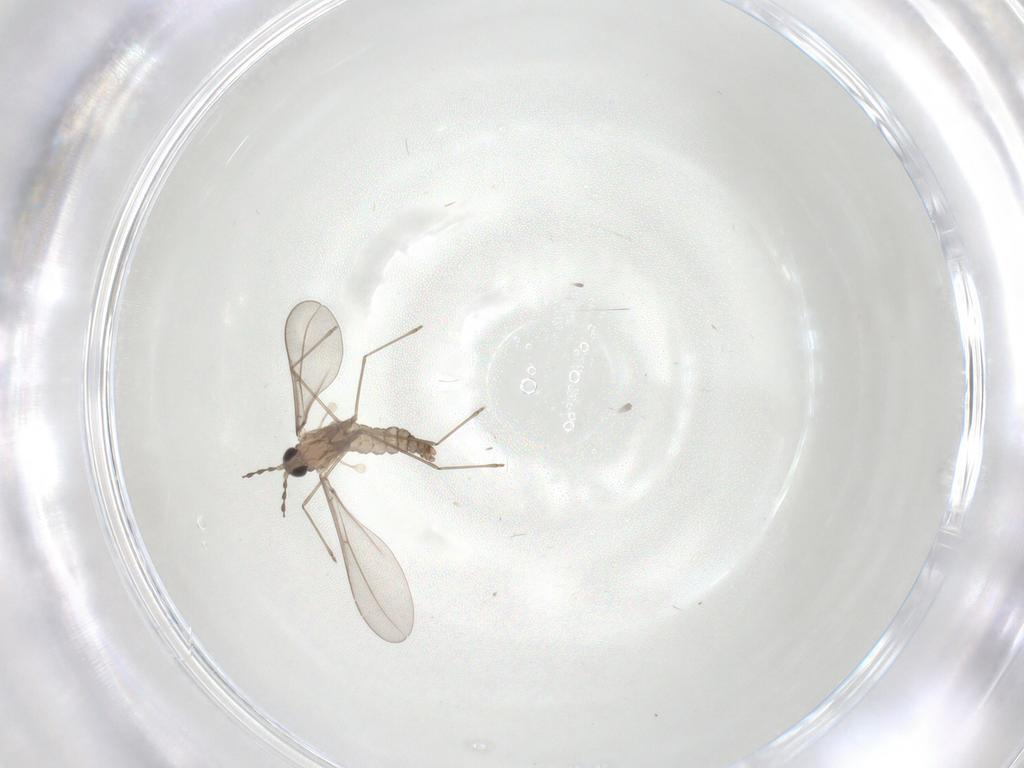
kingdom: Animalia
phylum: Arthropoda
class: Insecta
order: Diptera
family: Cecidomyiidae
